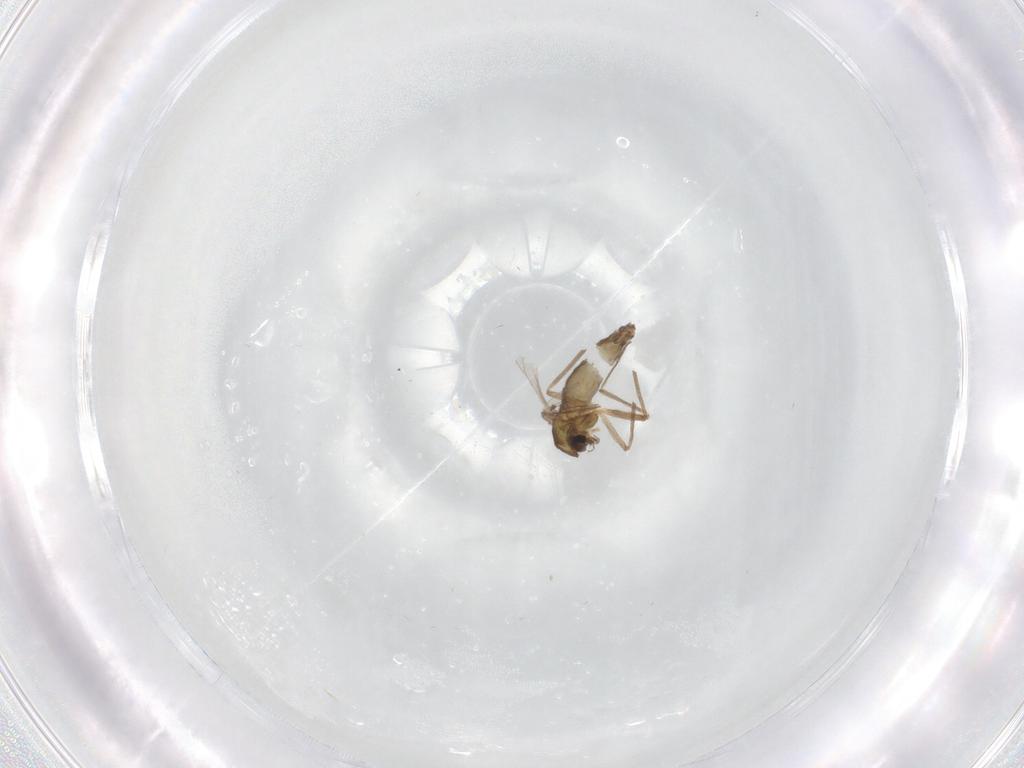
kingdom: Animalia
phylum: Arthropoda
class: Insecta
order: Diptera
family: Chironomidae
